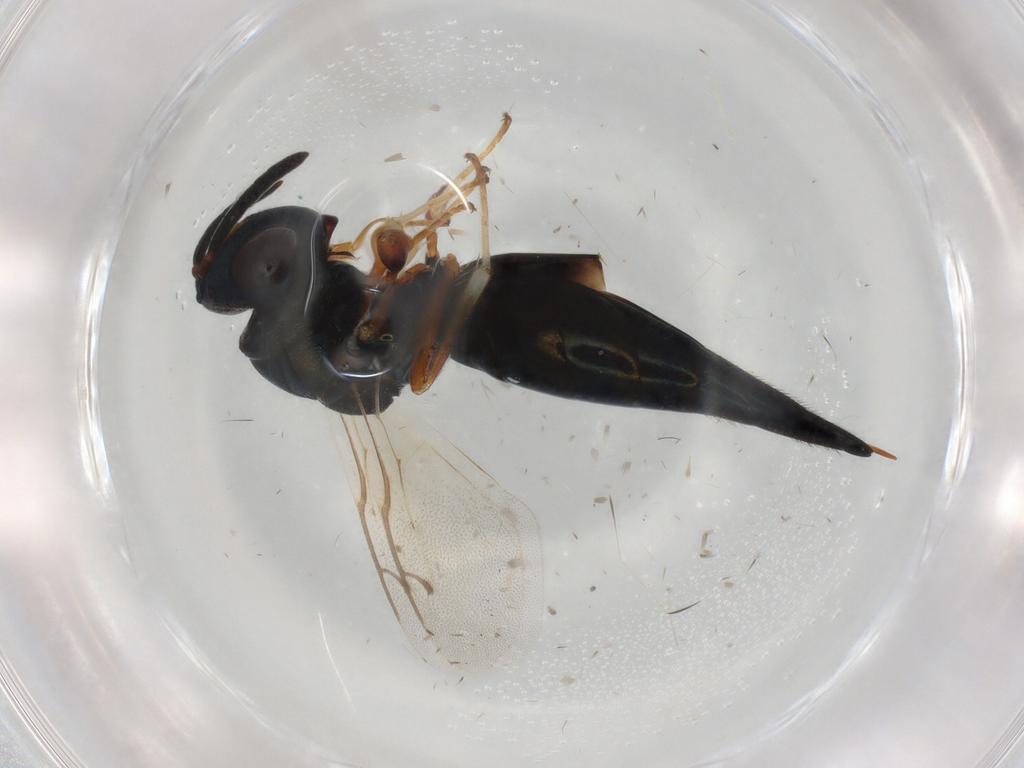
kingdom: Animalia
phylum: Arthropoda
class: Insecta
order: Hymenoptera
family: Pteromalidae
